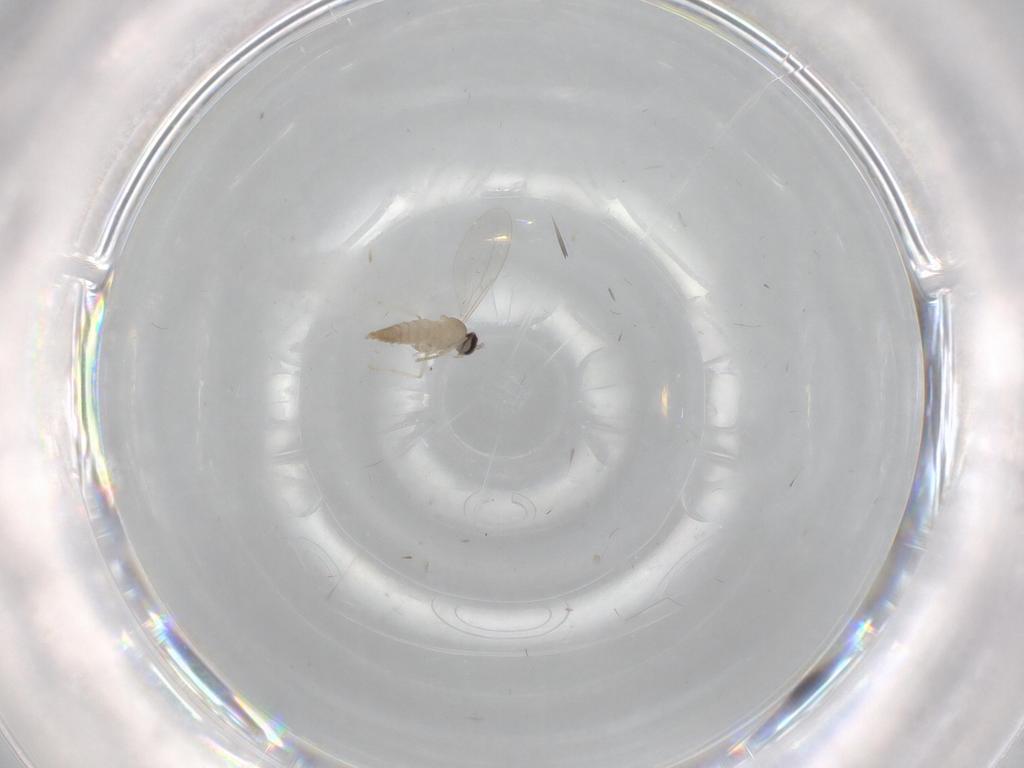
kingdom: Animalia
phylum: Arthropoda
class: Insecta
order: Diptera
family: Cecidomyiidae
